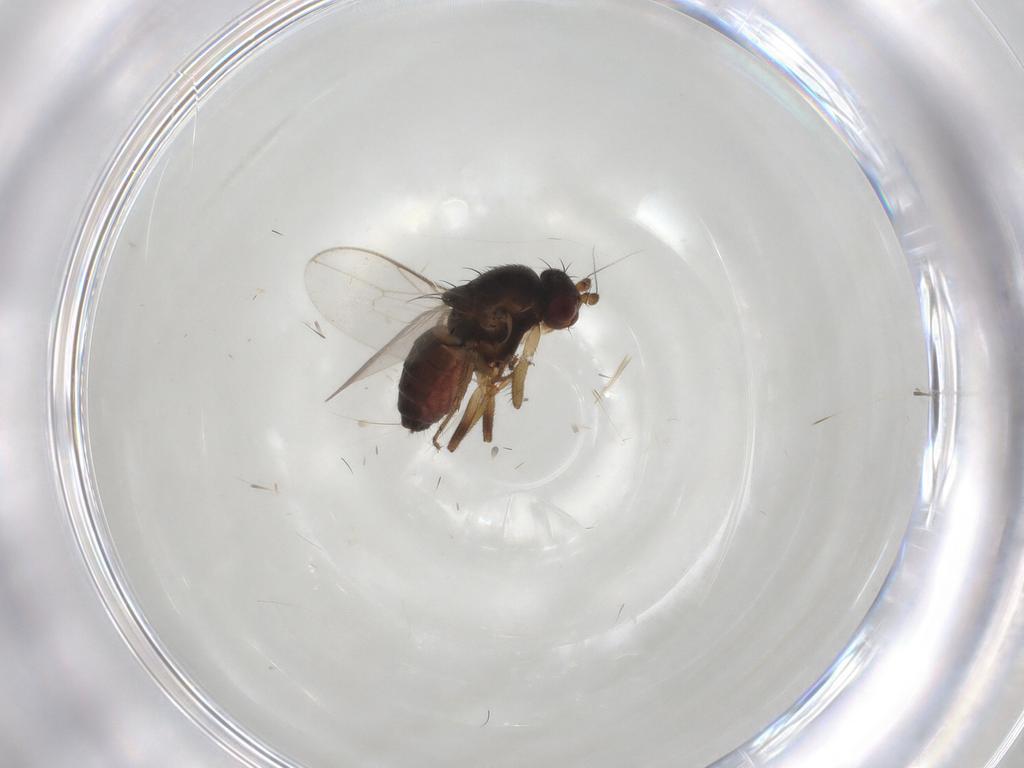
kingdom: Animalia
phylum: Arthropoda
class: Insecta
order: Diptera
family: Sphaeroceridae
